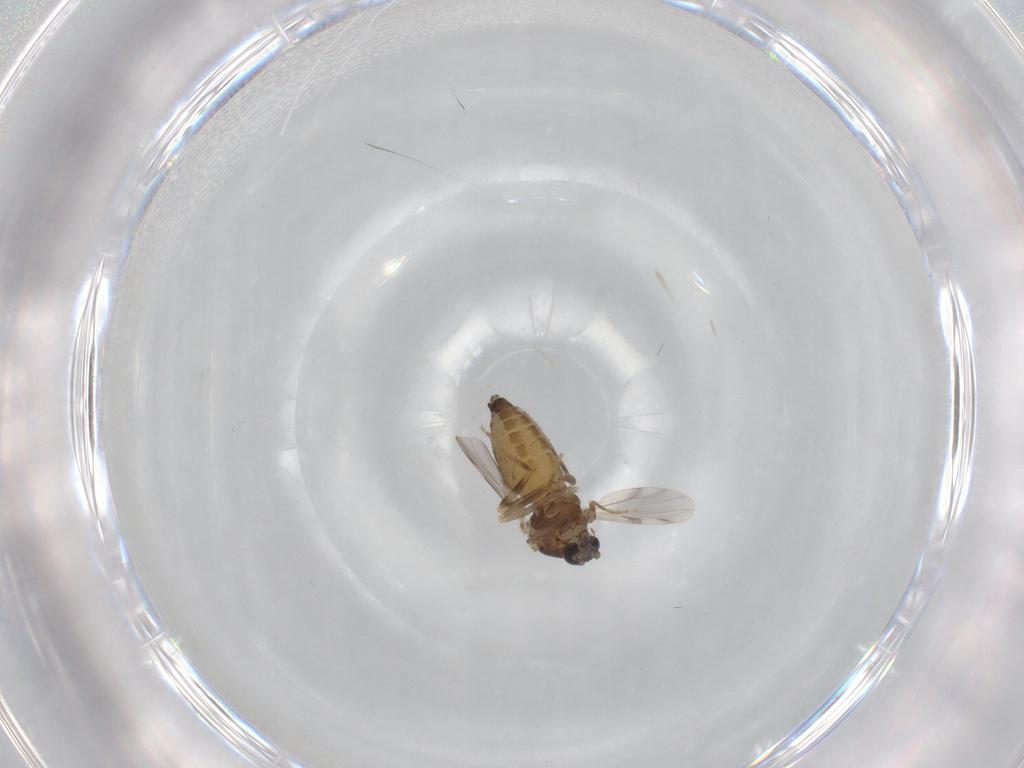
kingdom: Animalia
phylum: Arthropoda
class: Insecta
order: Diptera
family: Ceratopogonidae
